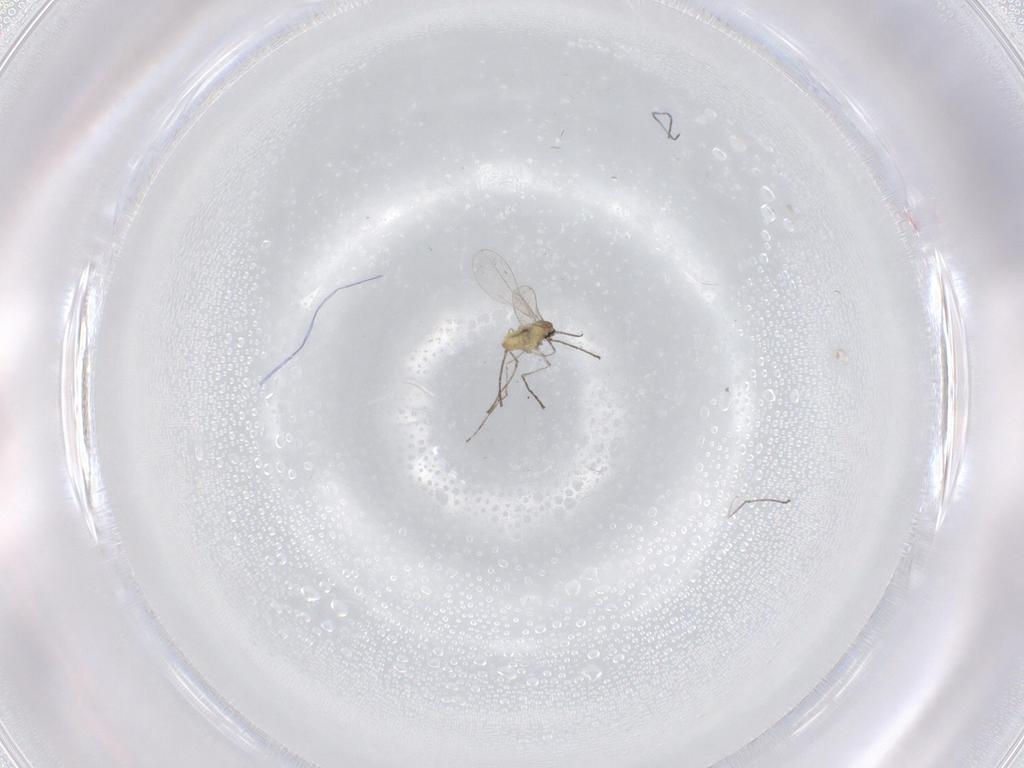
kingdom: Animalia
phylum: Arthropoda
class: Insecta
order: Diptera
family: Cecidomyiidae
